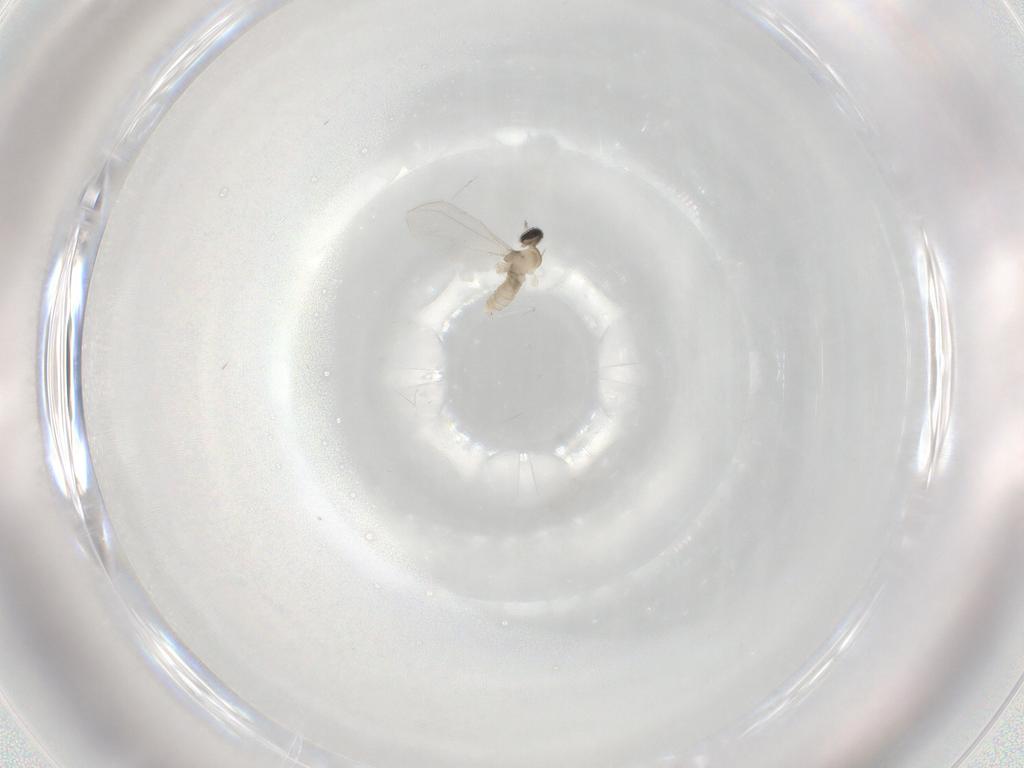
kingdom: Animalia
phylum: Arthropoda
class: Insecta
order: Diptera
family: Cecidomyiidae
